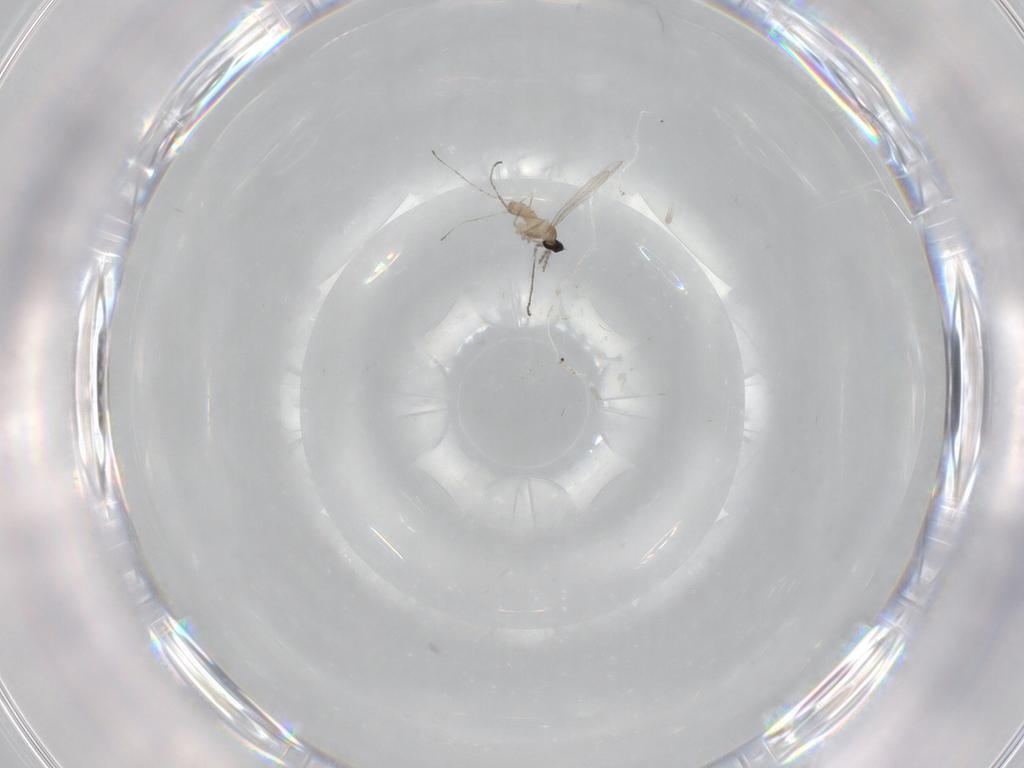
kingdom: Animalia
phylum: Arthropoda
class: Insecta
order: Diptera
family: Cecidomyiidae
